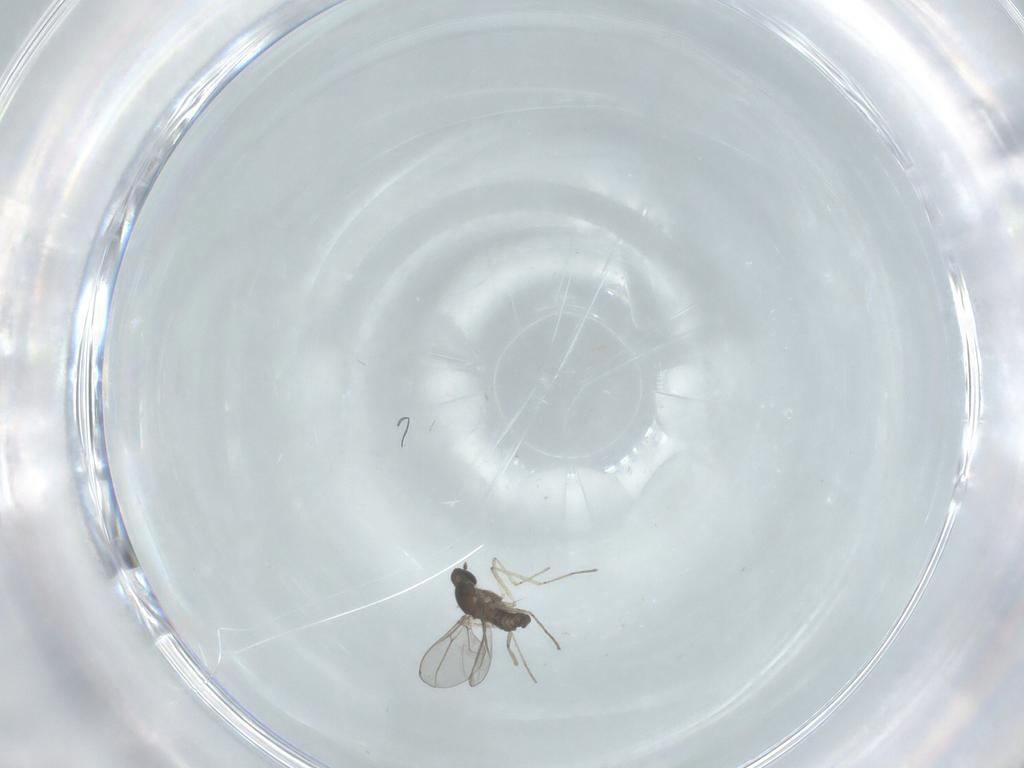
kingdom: Animalia
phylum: Arthropoda
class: Insecta
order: Diptera
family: Cecidomyiidae
